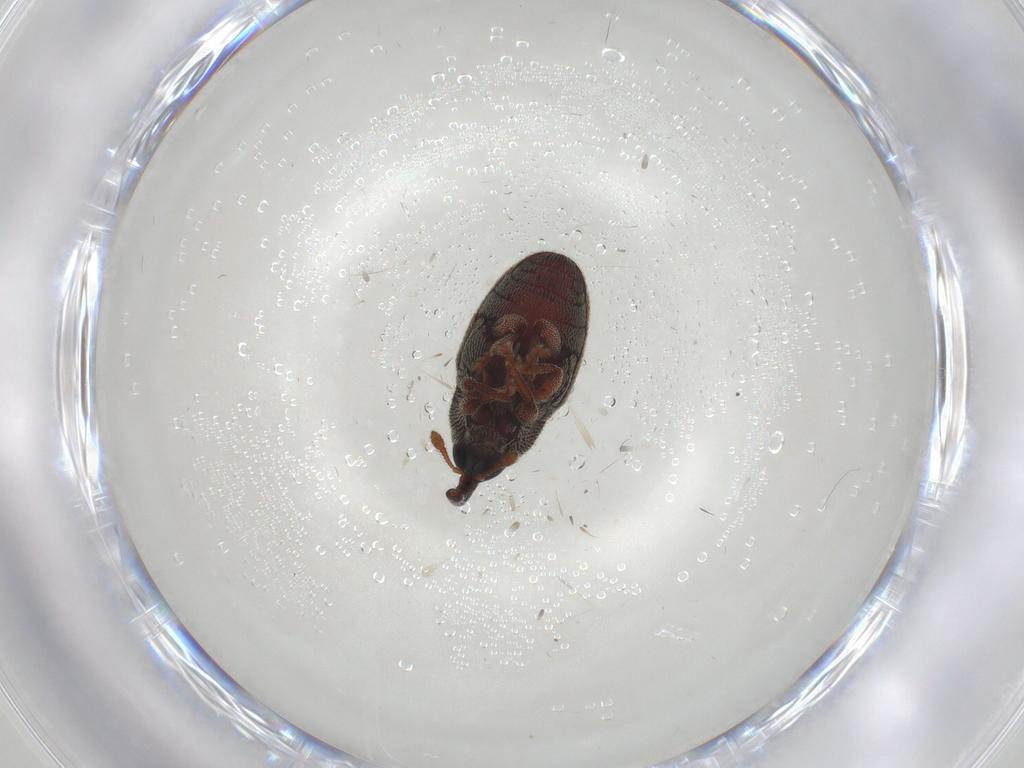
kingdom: Animalia
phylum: Arthropoda
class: Insecta
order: Coleoptera
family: Curculionidae
